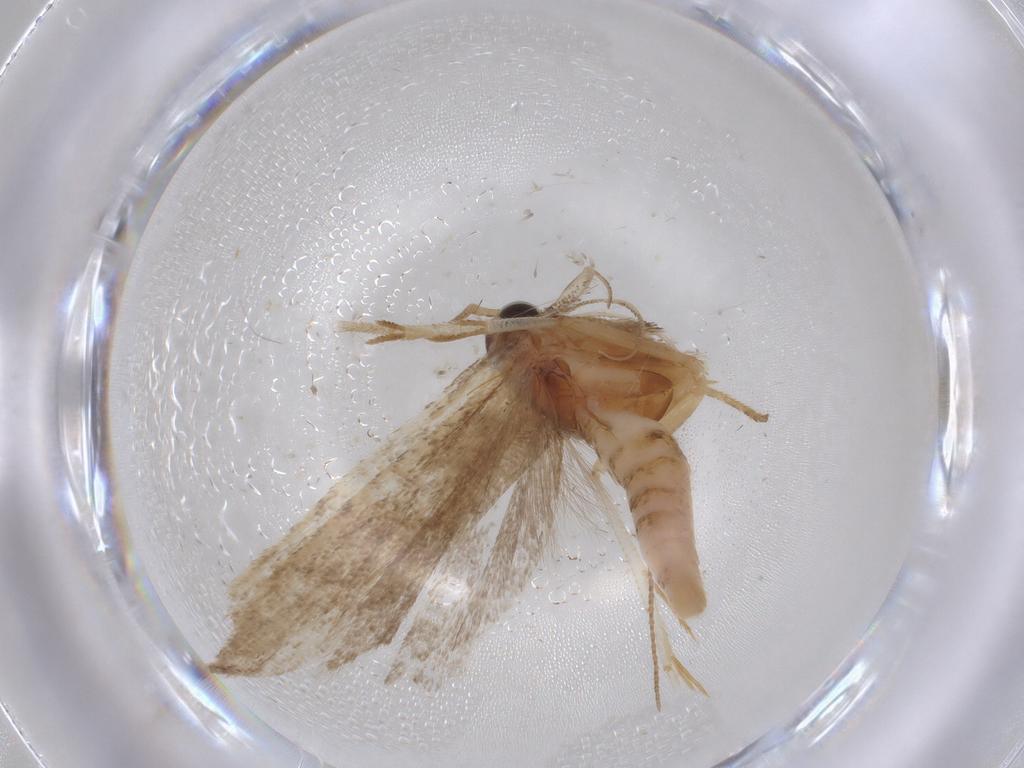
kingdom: Animalia
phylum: Arthropoda
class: Insecta
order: Lepidoptera
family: Gelechiidae
